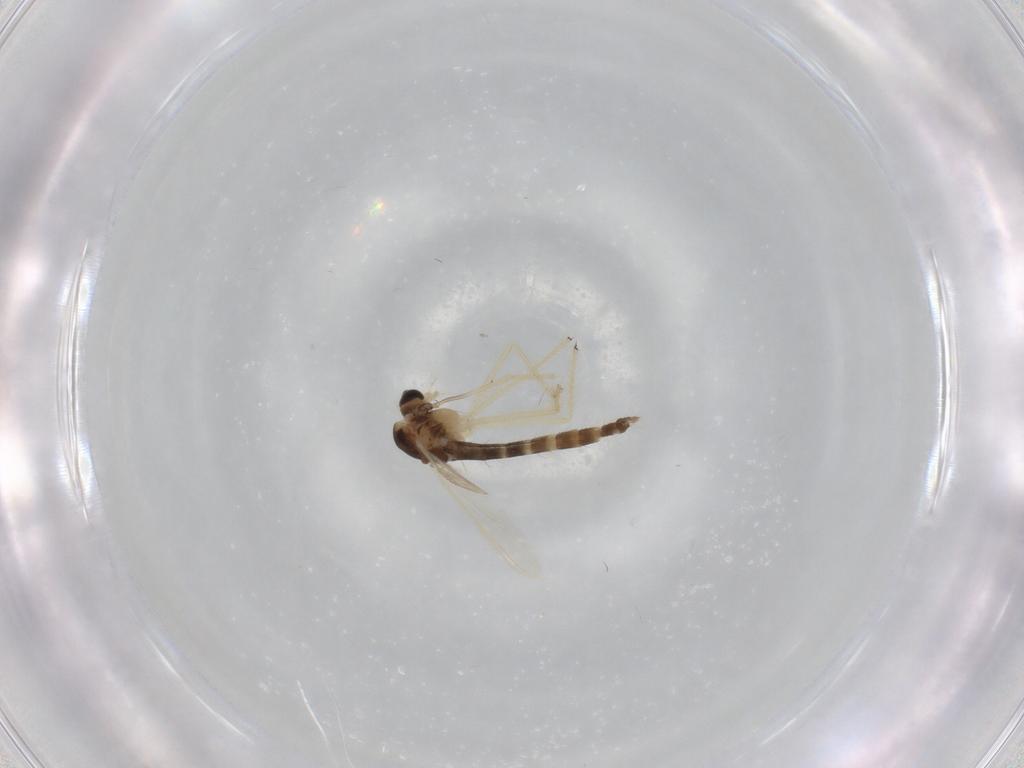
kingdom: Animalia
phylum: Arthropoda
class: Insecta
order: Diptera
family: Chironomidae
